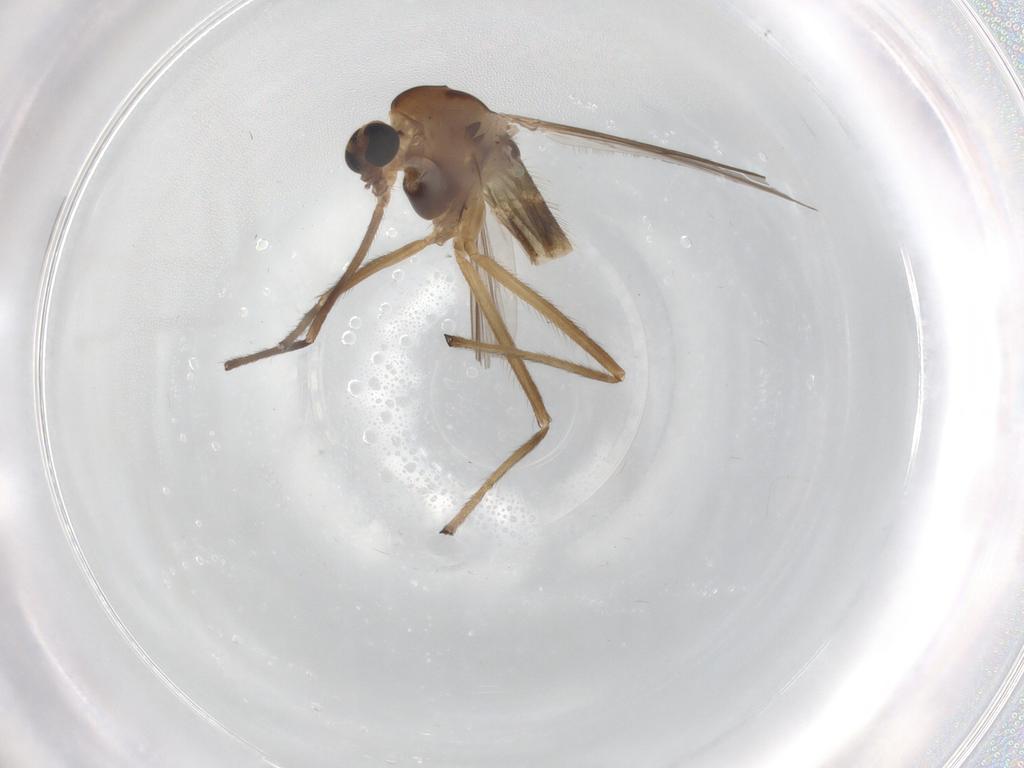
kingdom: Animalia
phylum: Arthropoda
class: Insecta
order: Diptera
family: Chironomidae
